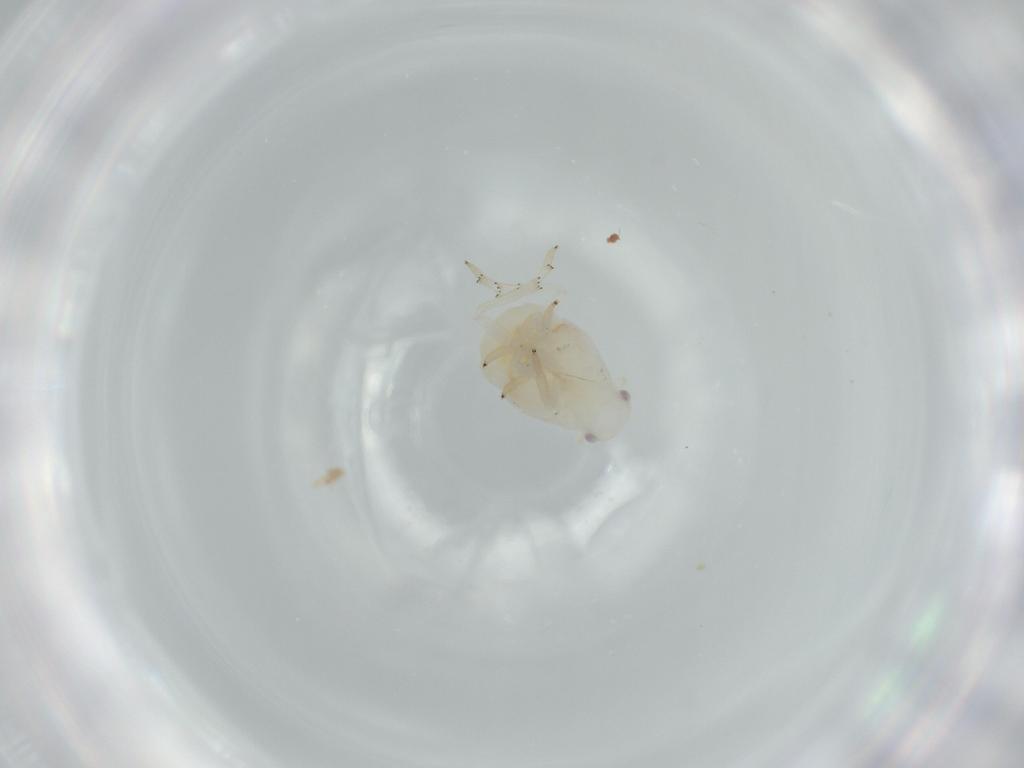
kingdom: Animalia
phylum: Arthropoda
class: Insecta
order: Hemiptera
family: Flatidae
